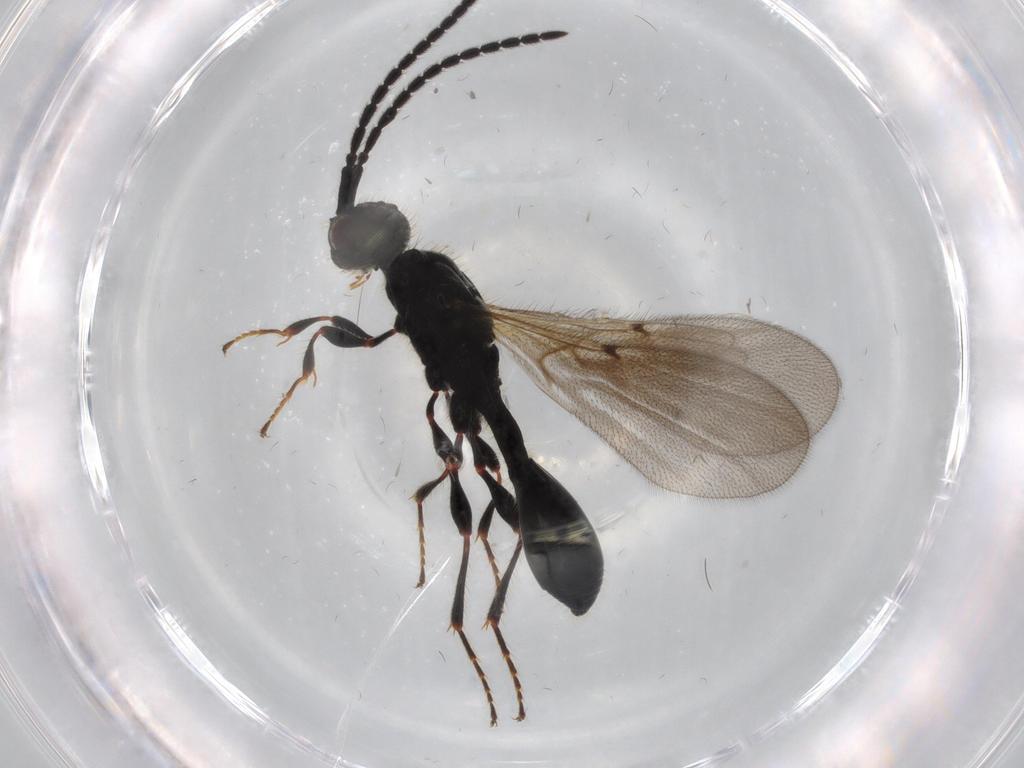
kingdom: Animalia
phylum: Arthropoda
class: Insecta
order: Hymenoptera
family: Diapriidae
